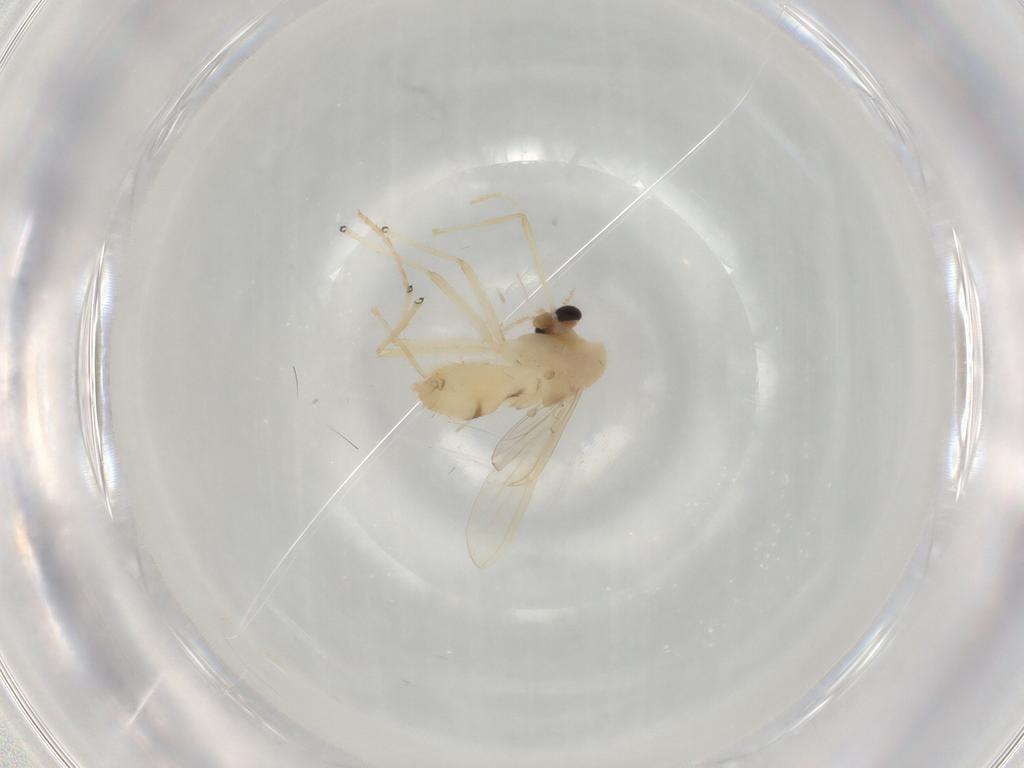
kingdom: Animalia
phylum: Arthropoda
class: Insecta
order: Diptera
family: Chironomidae
